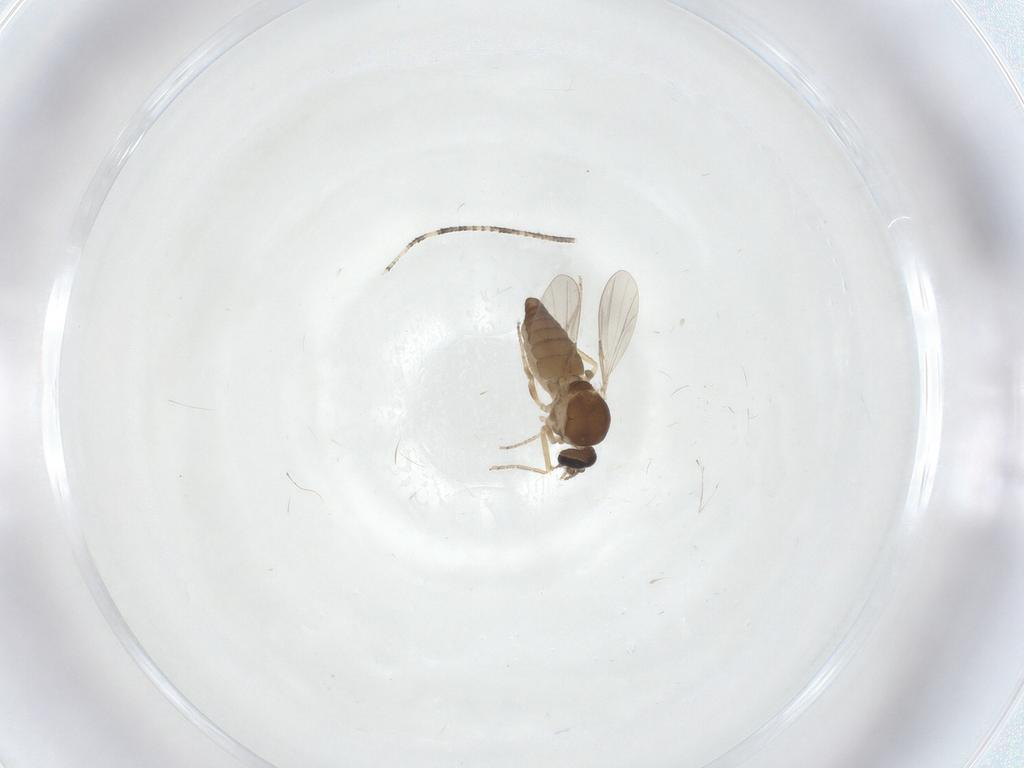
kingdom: Animalia
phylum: Arthropoda
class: Insecta
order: Diptera
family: Ceratopogonidae
